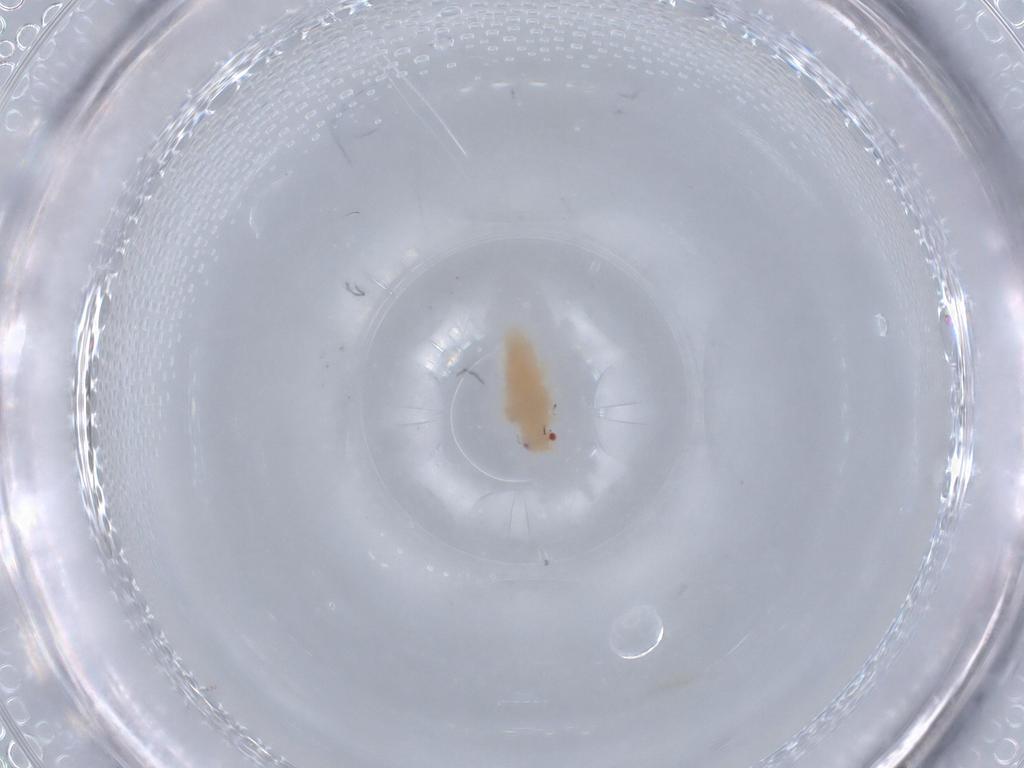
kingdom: Animalia
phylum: Arthropoda
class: Insecta
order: Hemiptera
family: Aphididae
